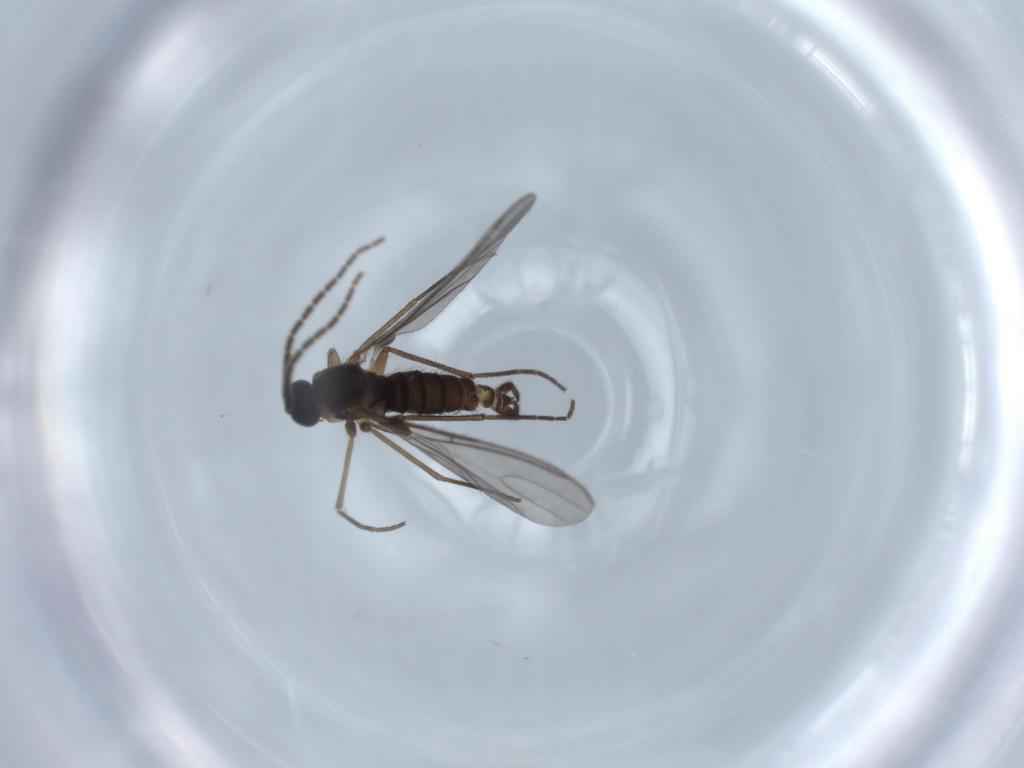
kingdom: Animalia
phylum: Arthropoda
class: Insecta
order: Diptera
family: Sciaridae
